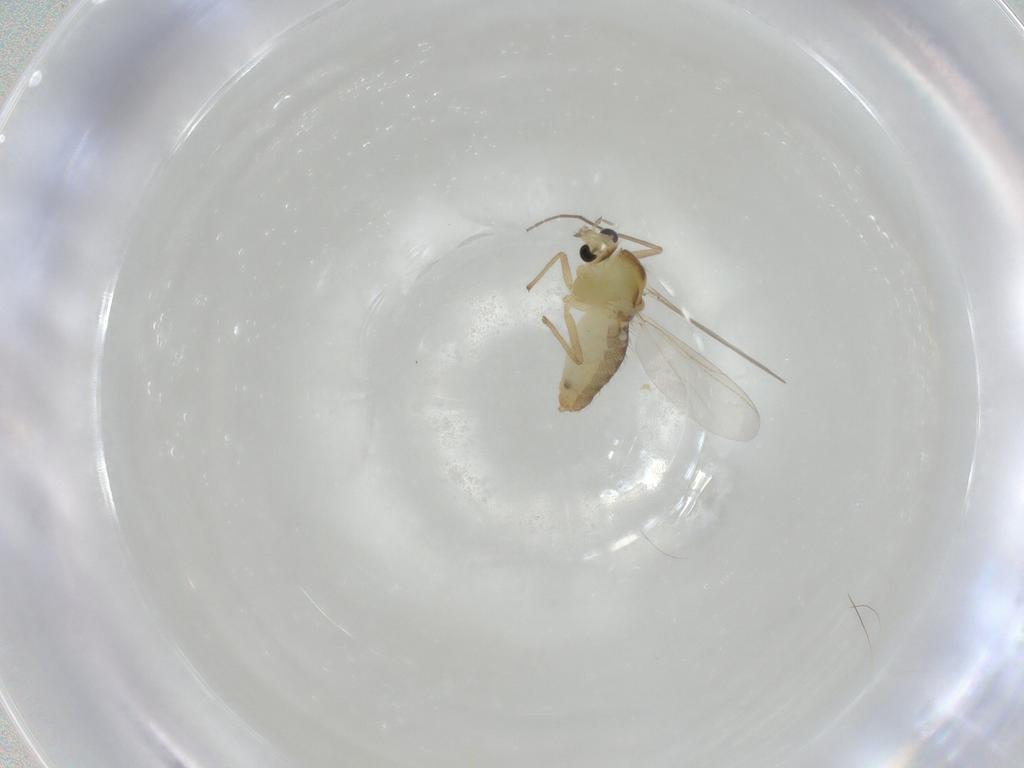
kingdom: Animalia
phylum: Arthropoda
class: Insecta
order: Diptera
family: Chironomidae
